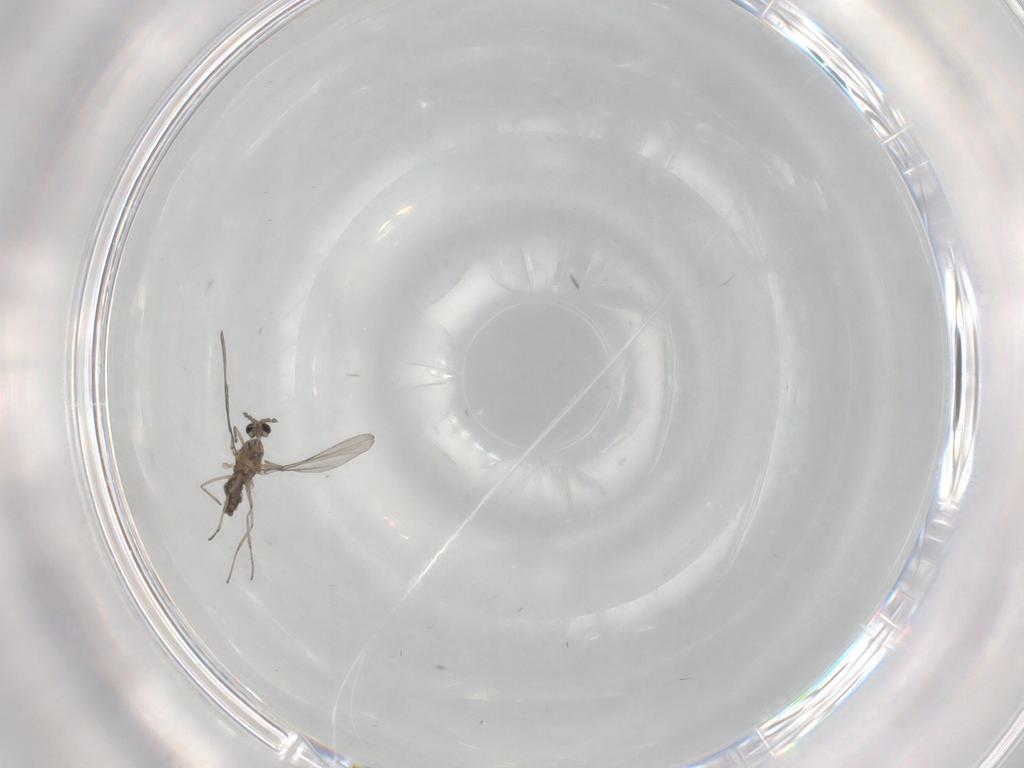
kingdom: Animalia
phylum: Arthropoda
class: Insecta
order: Diptera
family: Cecidomyiidae
